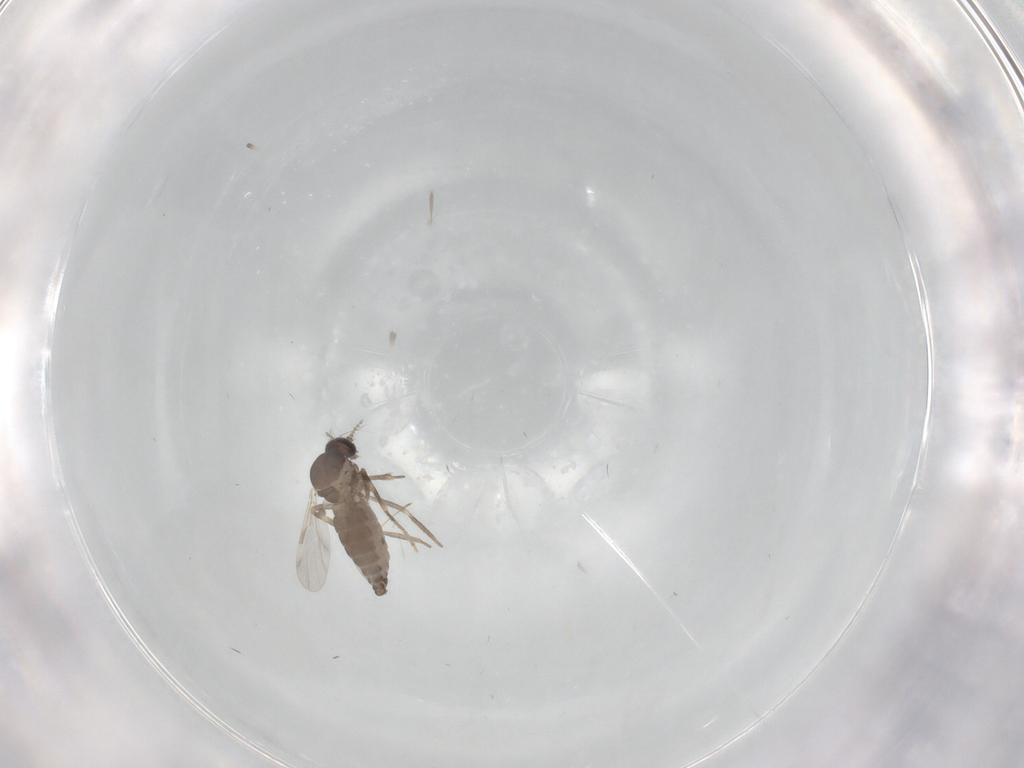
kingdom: Animalia
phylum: Arthropoda
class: Insecta
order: Diptera
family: Ceratopogonidae
